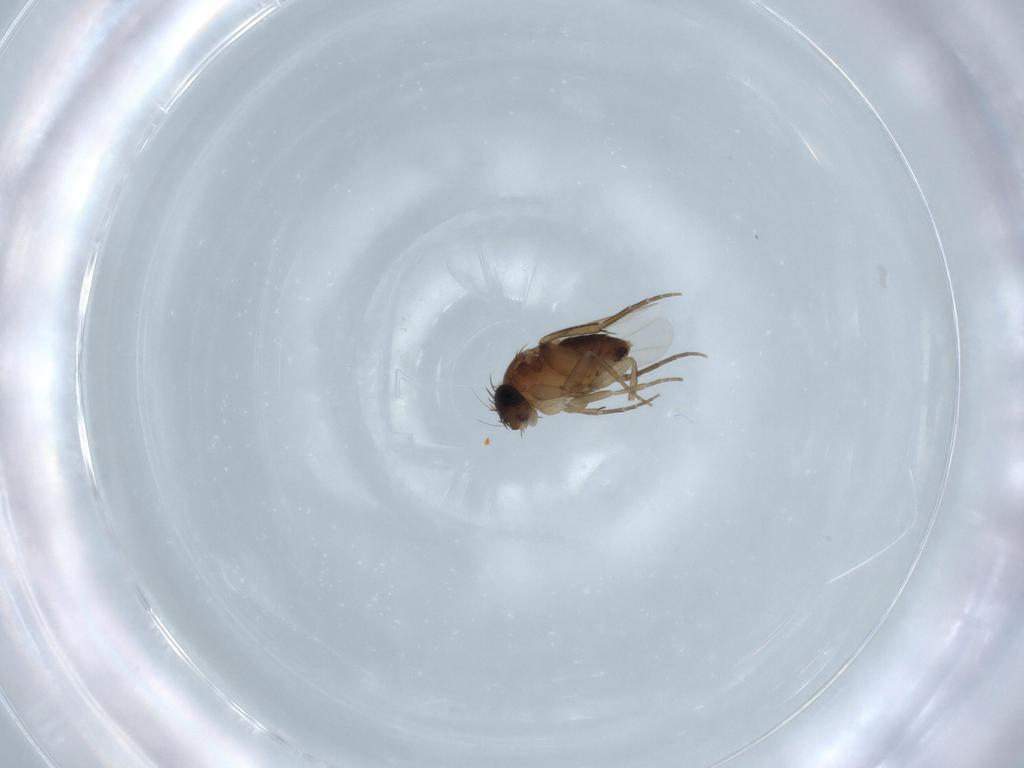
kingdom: Animalia
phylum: Arthropoda
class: Insecta
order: Diptera
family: Phoridae
